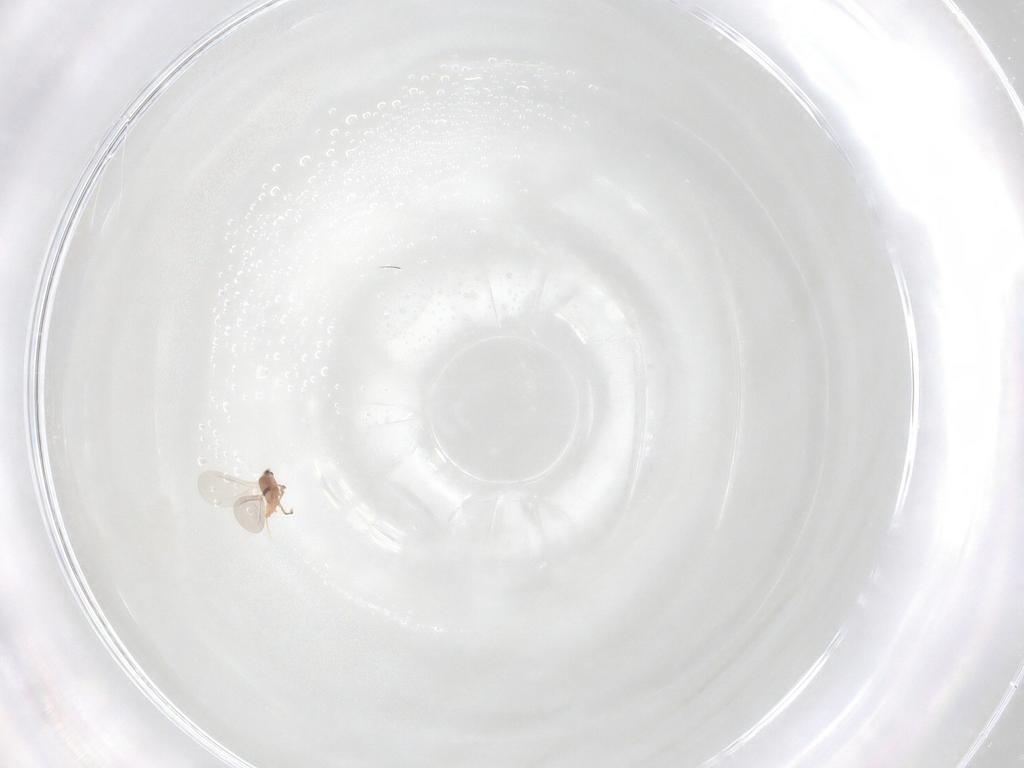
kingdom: Animalia
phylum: Arthropoda
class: Insecta
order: Hemiptera
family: Diaspididae
